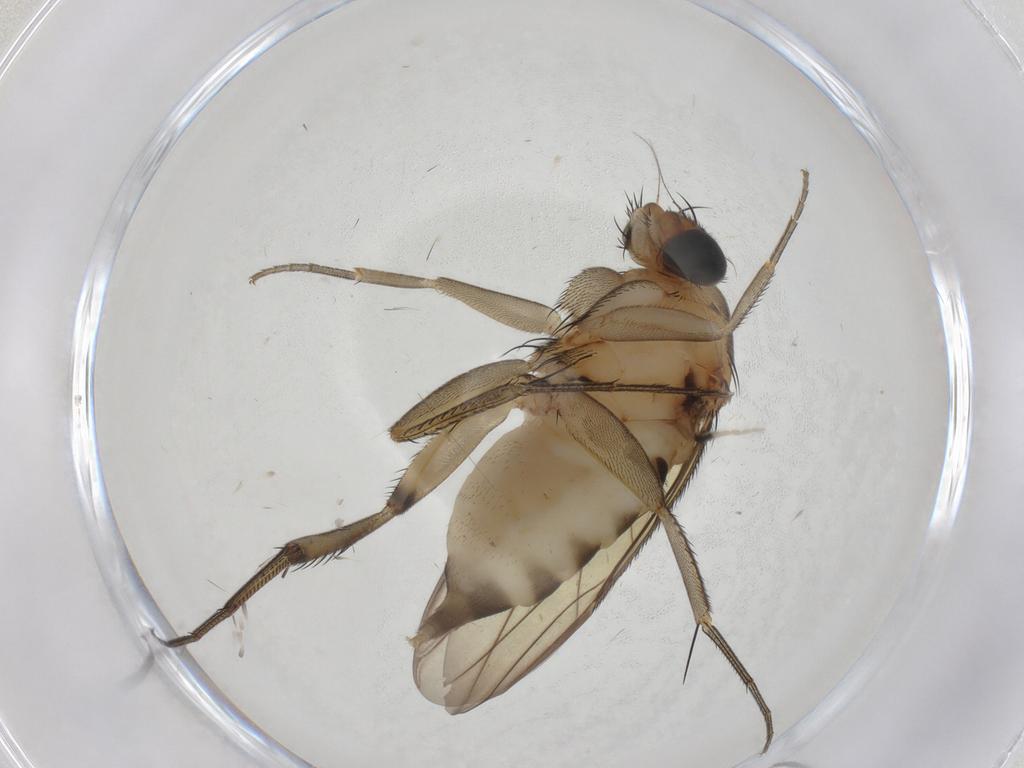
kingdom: Animalia
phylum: Arthropoda
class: Insecta
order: Diptera
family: Phoridae
